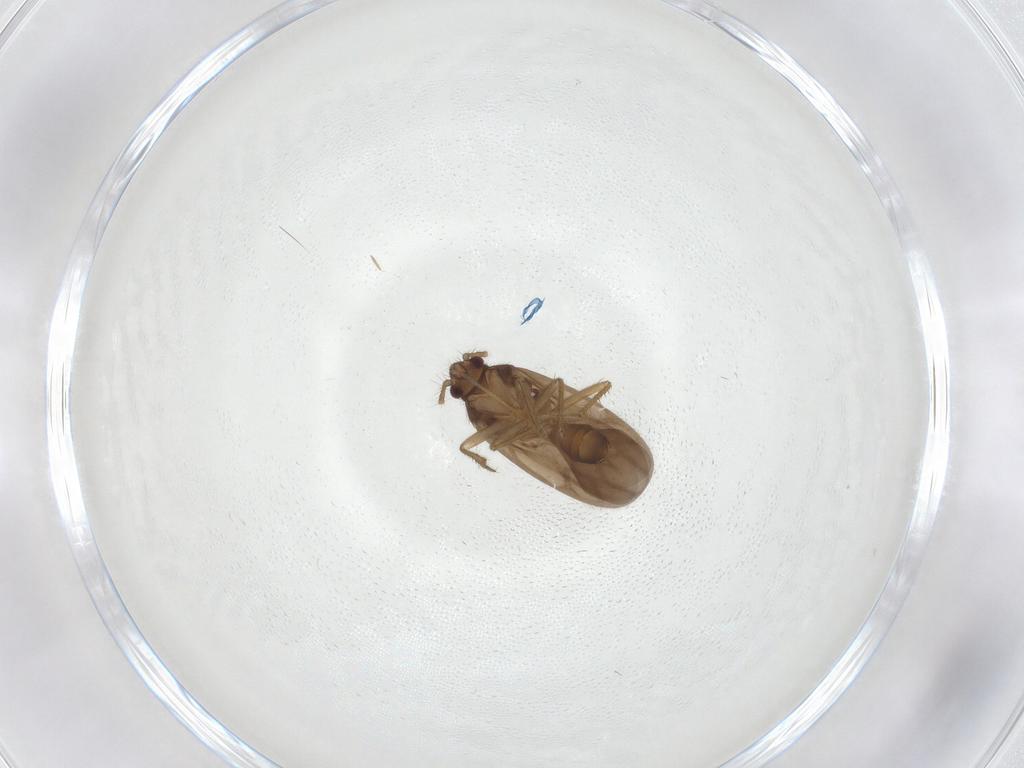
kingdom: Animalia
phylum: Arthropoda
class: Insecta
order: Hemiptera
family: Ceratocombidae
